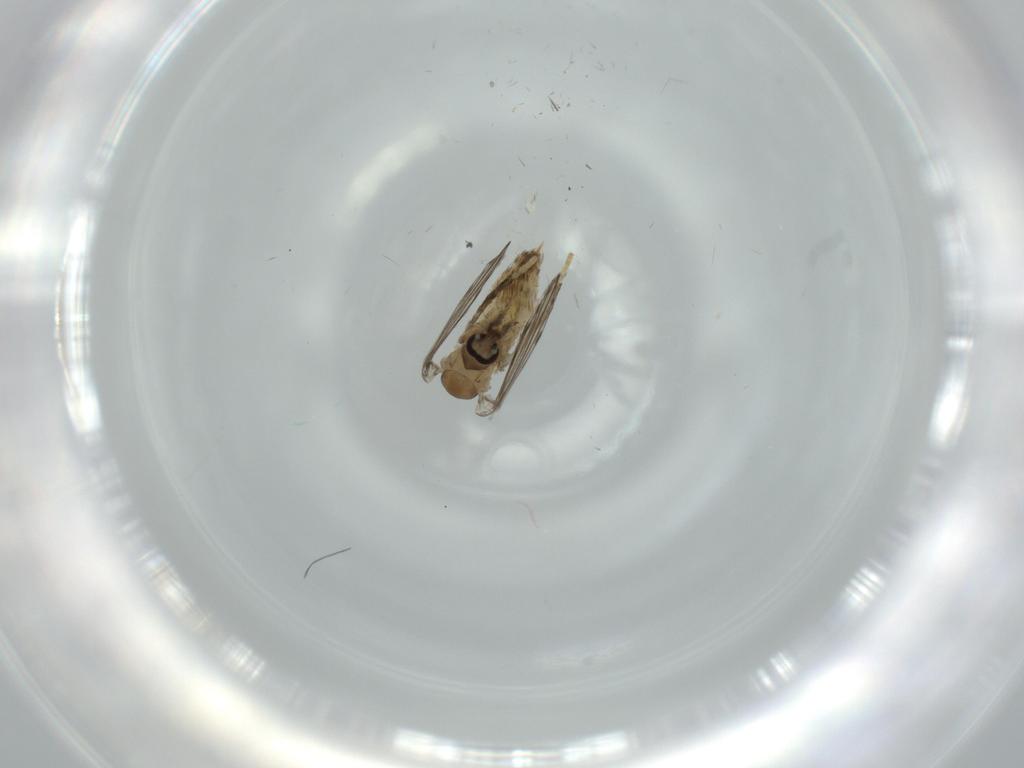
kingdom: Animalia
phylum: Arthropoda
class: Insecta
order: Diptera
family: Psychodidae
